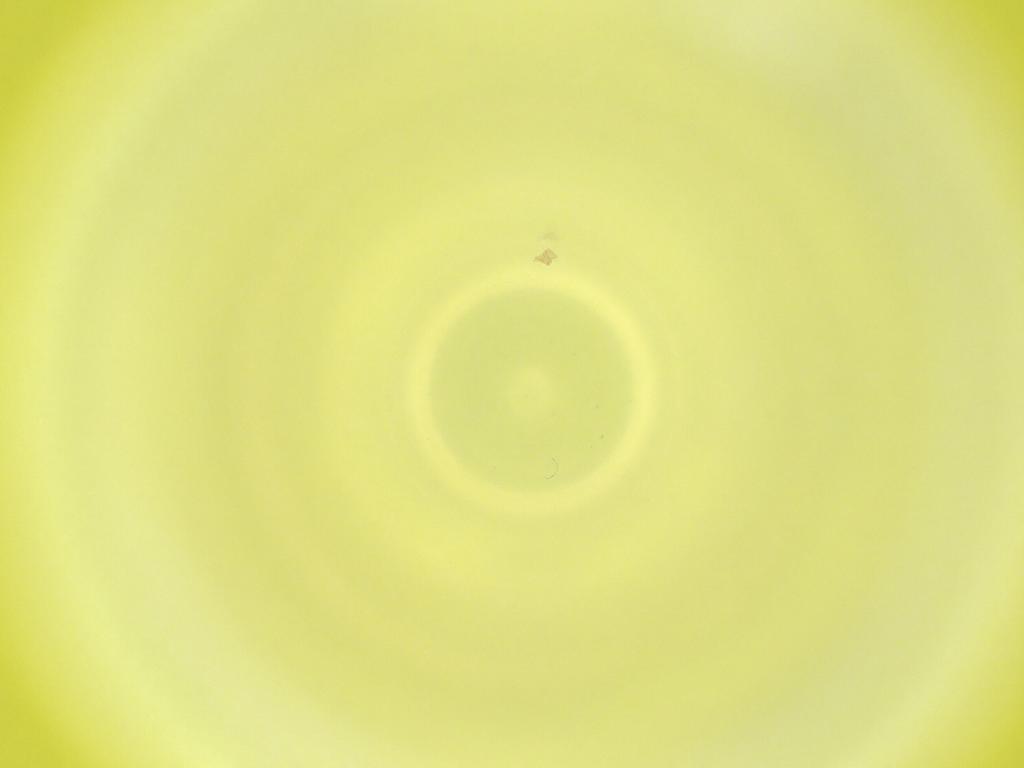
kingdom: Animalia
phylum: Arthropoda
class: Insecta
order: Diptera
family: Cecidomyiidae
